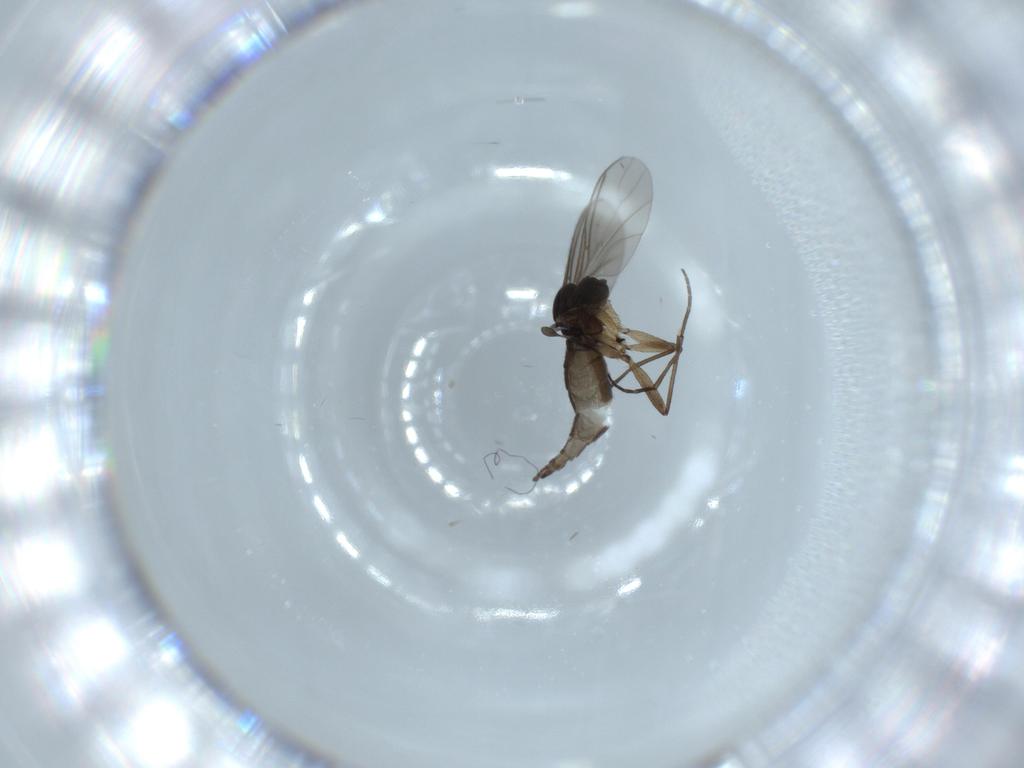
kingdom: Animalia
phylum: Arthropoda
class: Insecta
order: Diptera
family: Sciaridae
